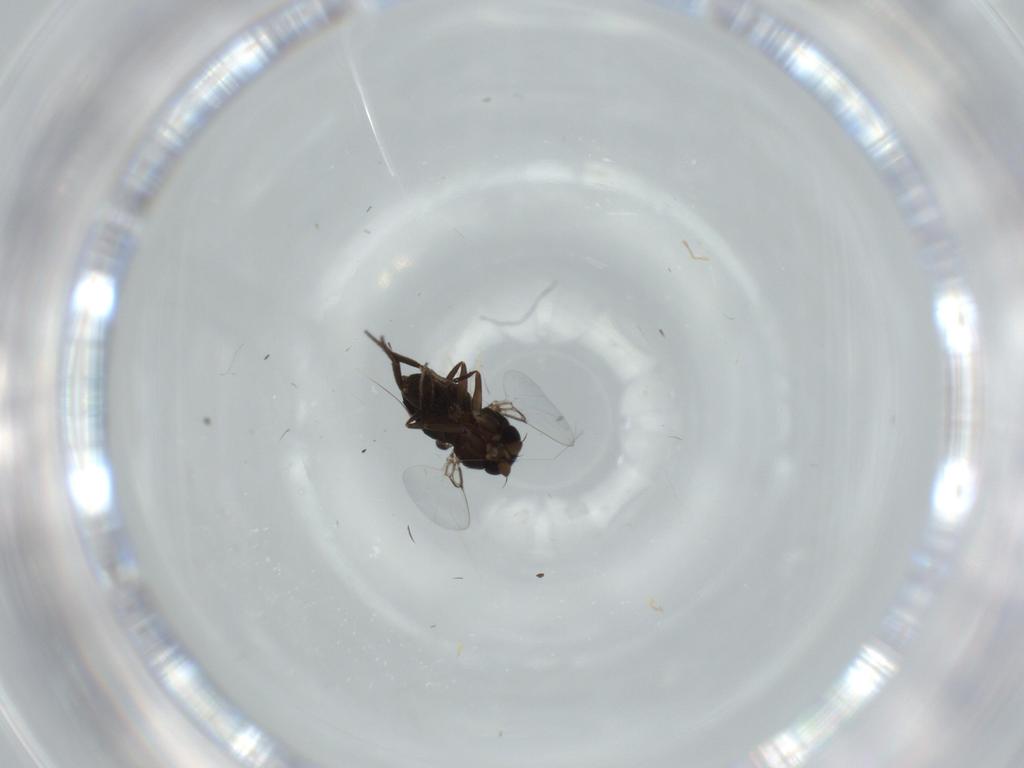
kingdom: Animalia
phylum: Arthropoda
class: Insecta
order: Diptera
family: Phoridae
